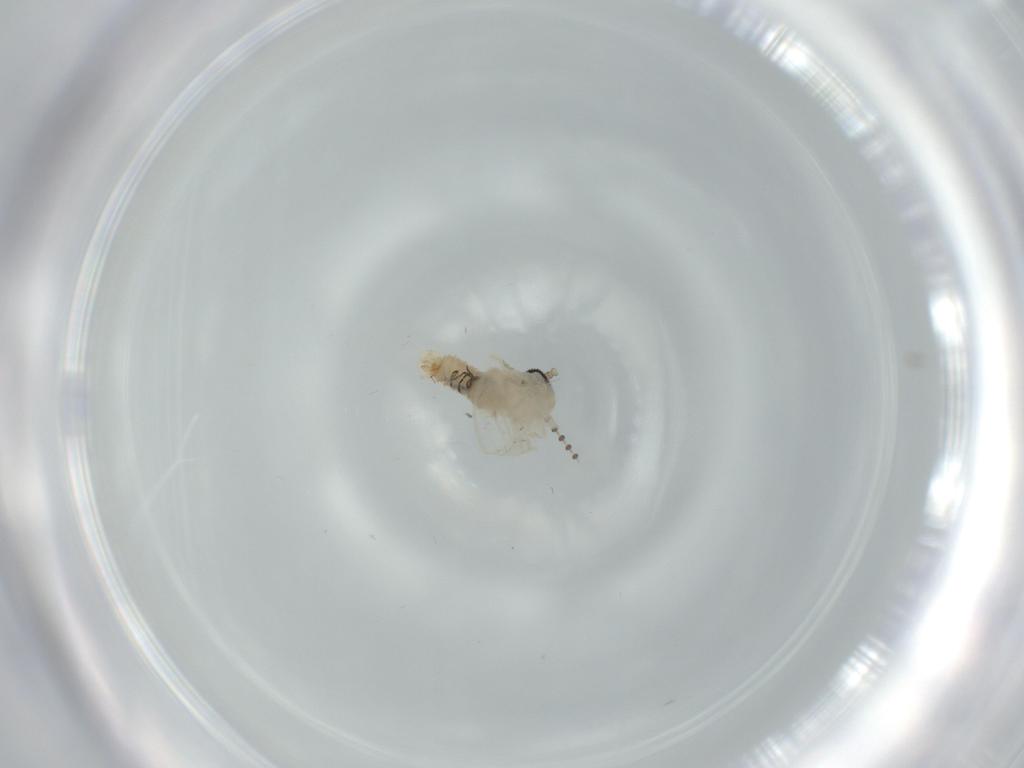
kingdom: Animalia
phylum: Arthropoda
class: Insecta
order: Diptera
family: Psychodidae
